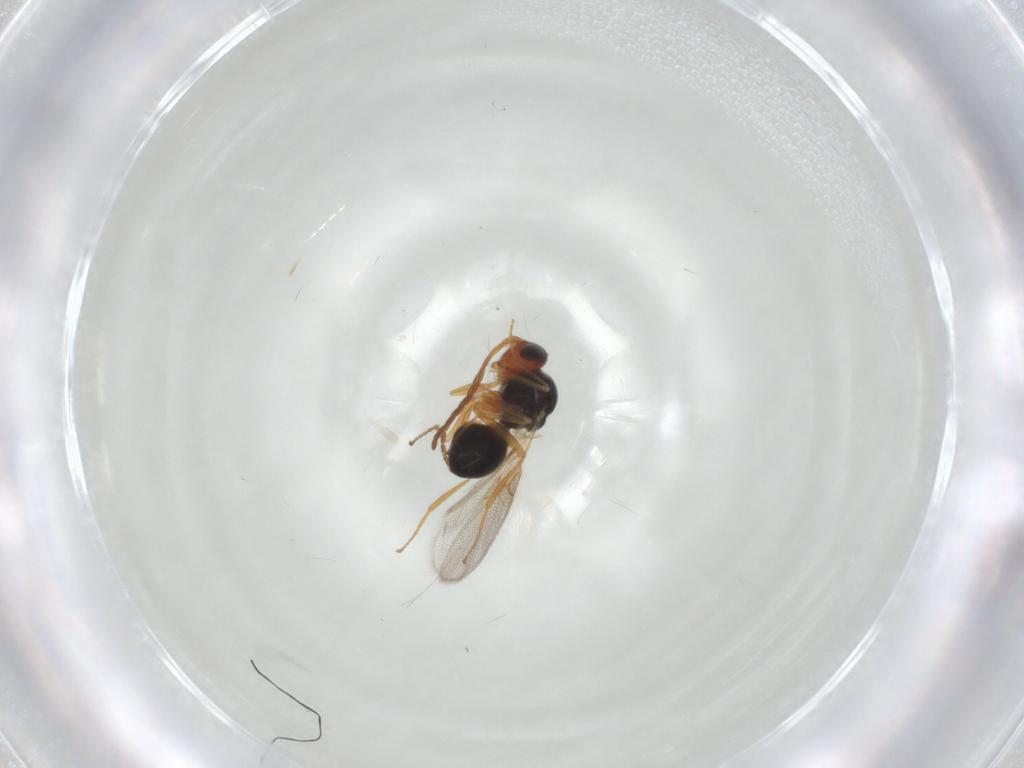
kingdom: Animalia
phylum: Arthropoda
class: Insecta
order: Hymenoptera
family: Figitidae
